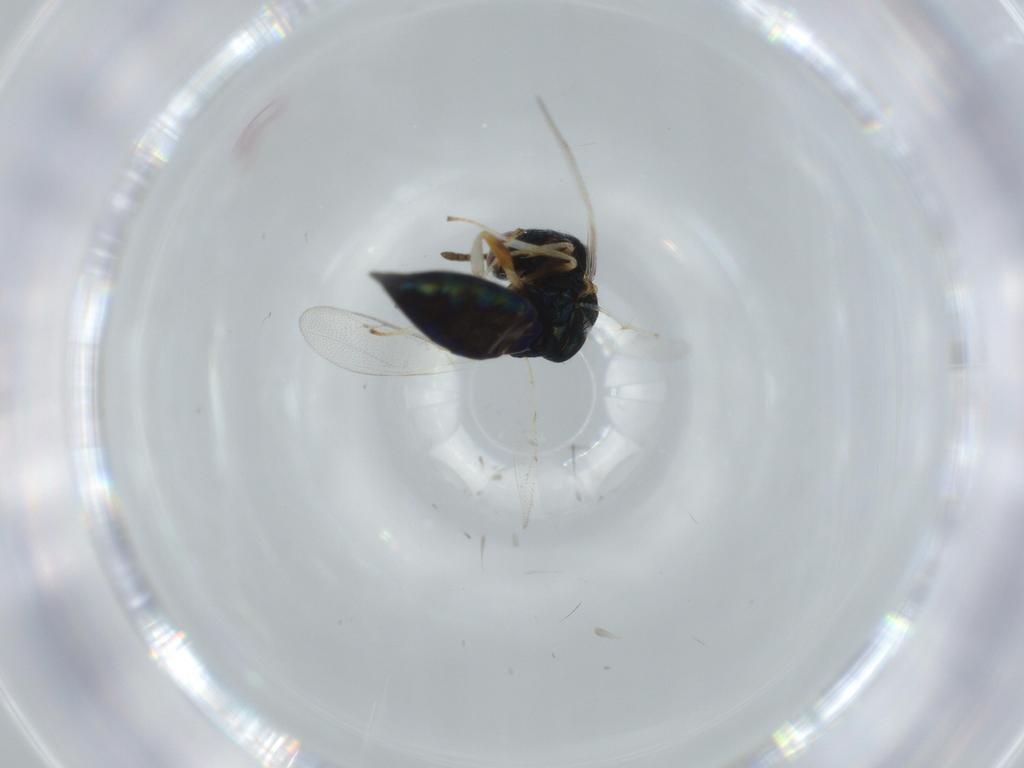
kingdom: Animalia
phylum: Arthropoda
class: Insecta
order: Hymenoptera
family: Pteromalidae
